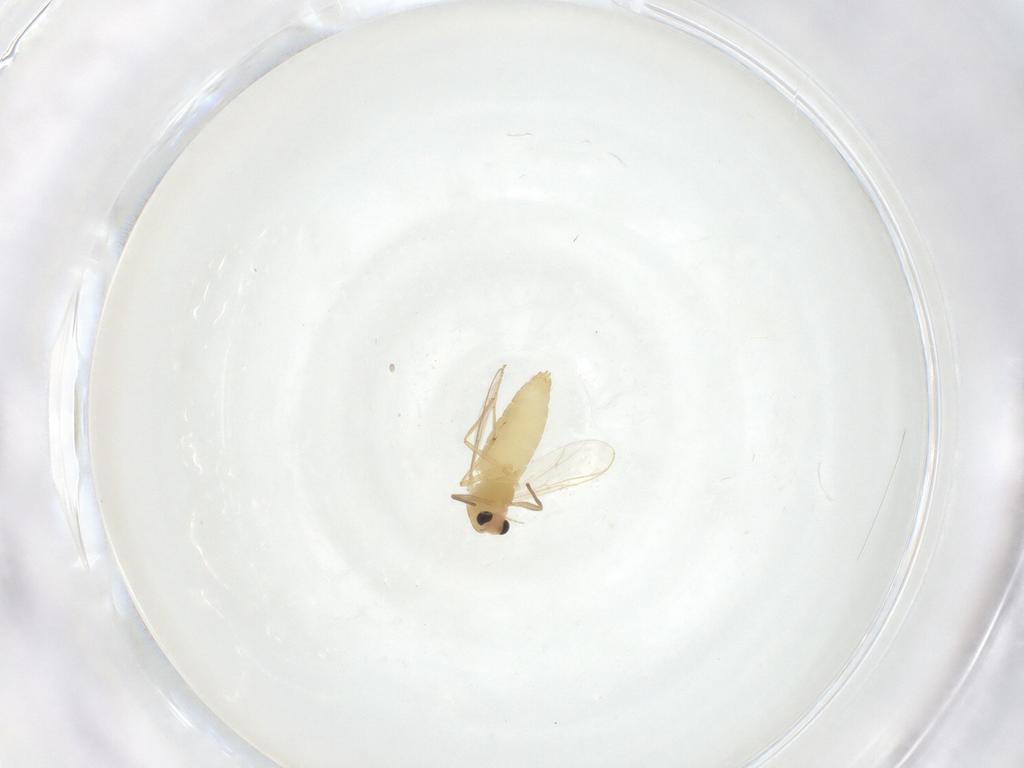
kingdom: Animalia
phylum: Arthropoda
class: Insecta
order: Diptera
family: Chironomidae
